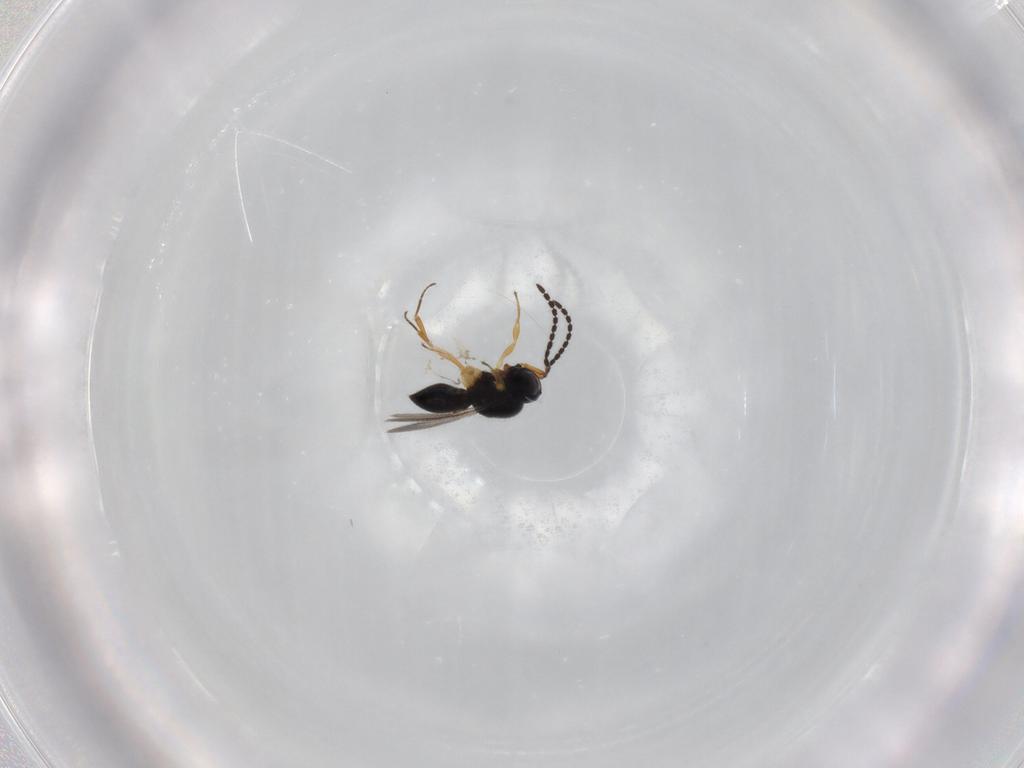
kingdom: Animalia
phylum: Arthropoda
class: Insecta
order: Hymenoptera
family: Scelionidae
